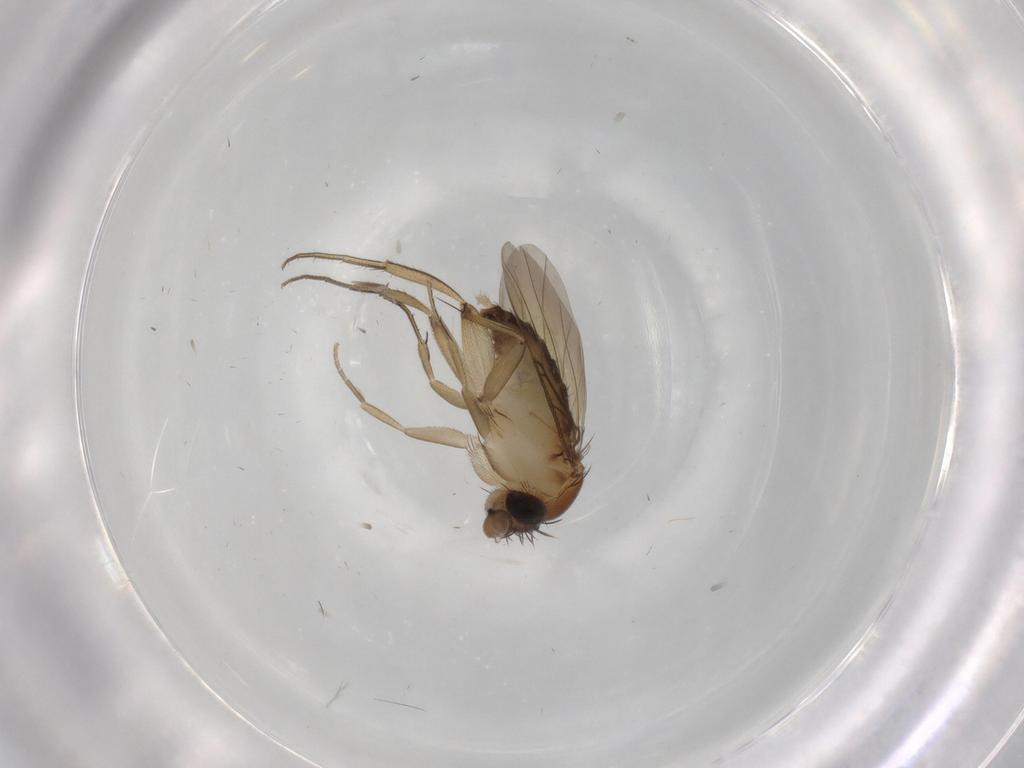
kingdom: Animalia
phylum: Arthropoda
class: Insecta
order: Diptera
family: Phoridae
